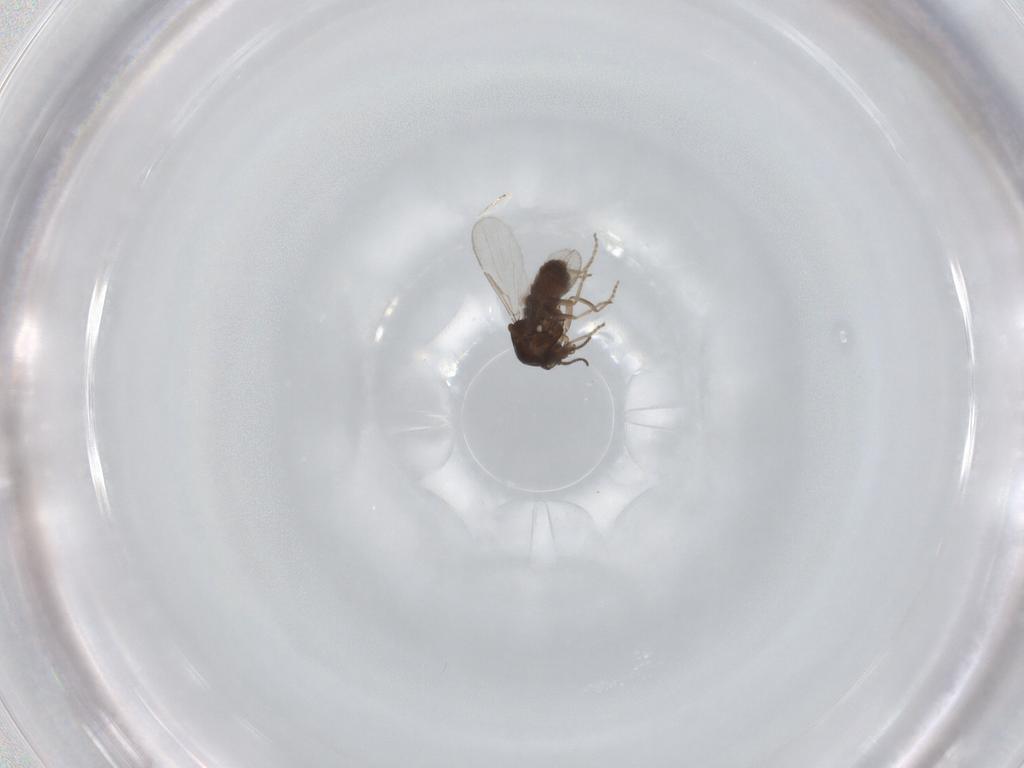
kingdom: Animalia
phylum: Arthropoda
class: Insecta
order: Diptera
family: Ceratopogonidae
